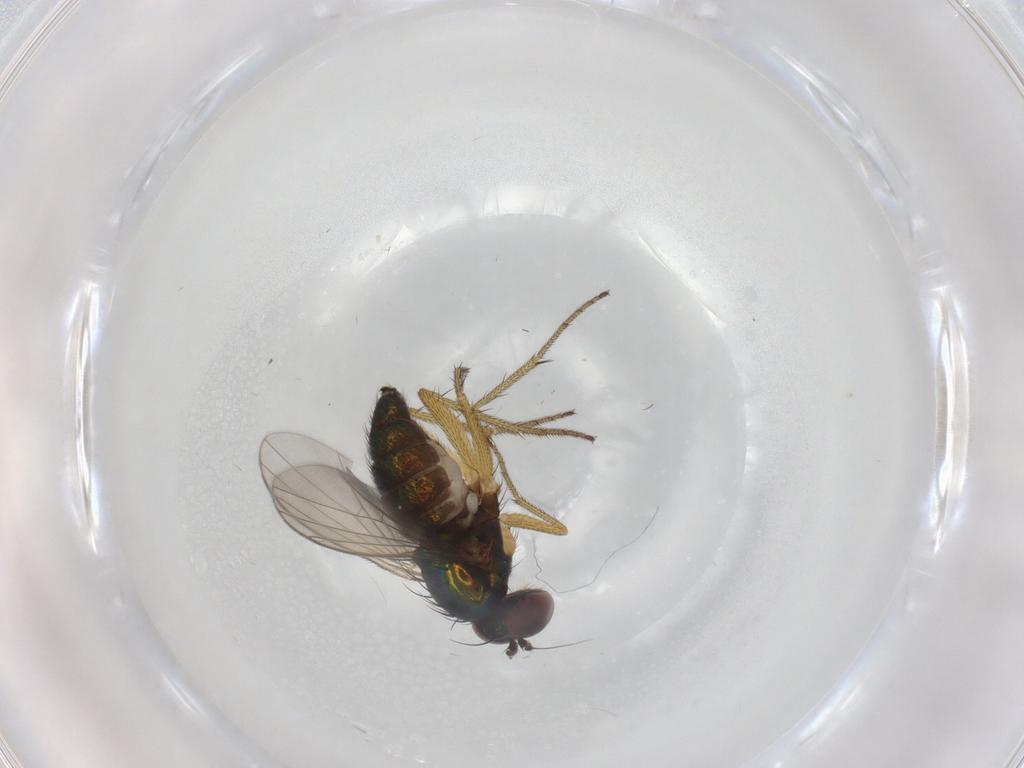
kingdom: Animalia
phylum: Arthropoda
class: Insecta
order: Diptera
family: Dolichopodidae
